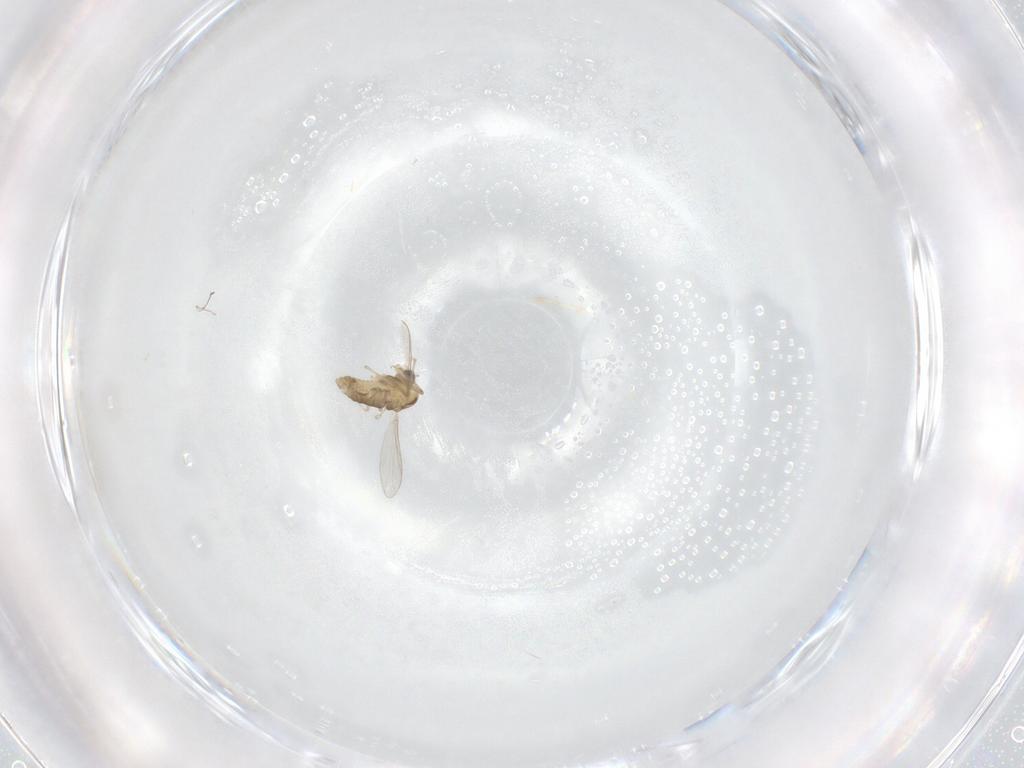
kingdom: Animalia
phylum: Arthropoda
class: Insecta
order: Diptera
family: Chironomidae
